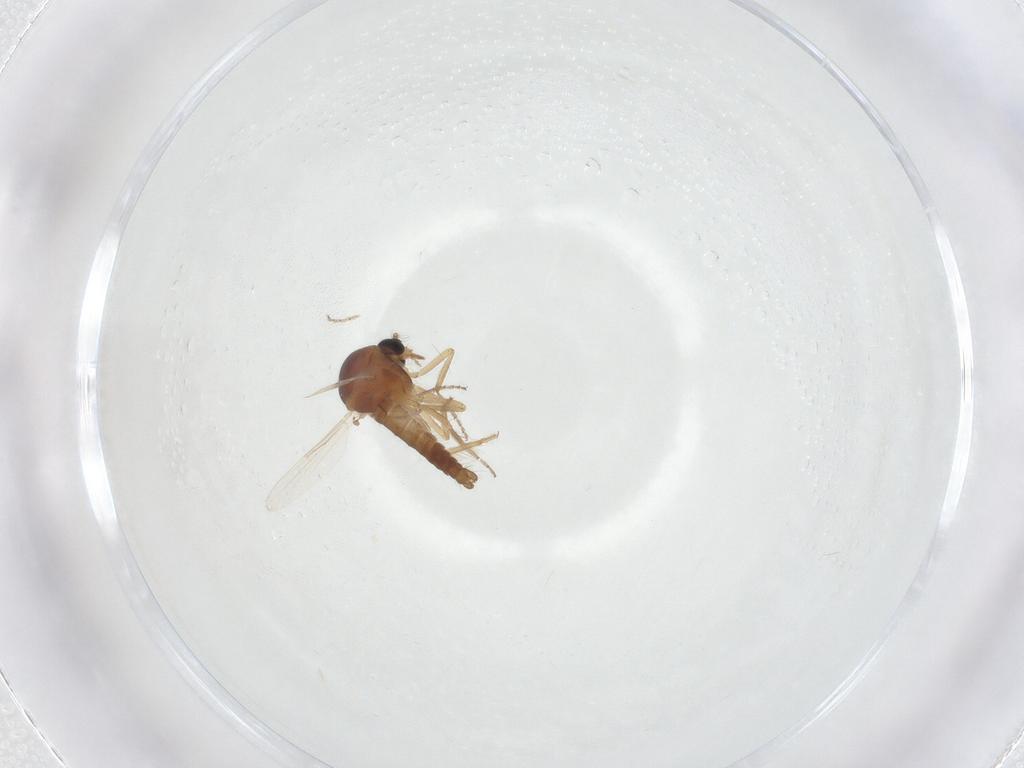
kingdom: Animalia
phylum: Arthropoda
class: Insecta
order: Diptera
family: Ceratopogonidae
